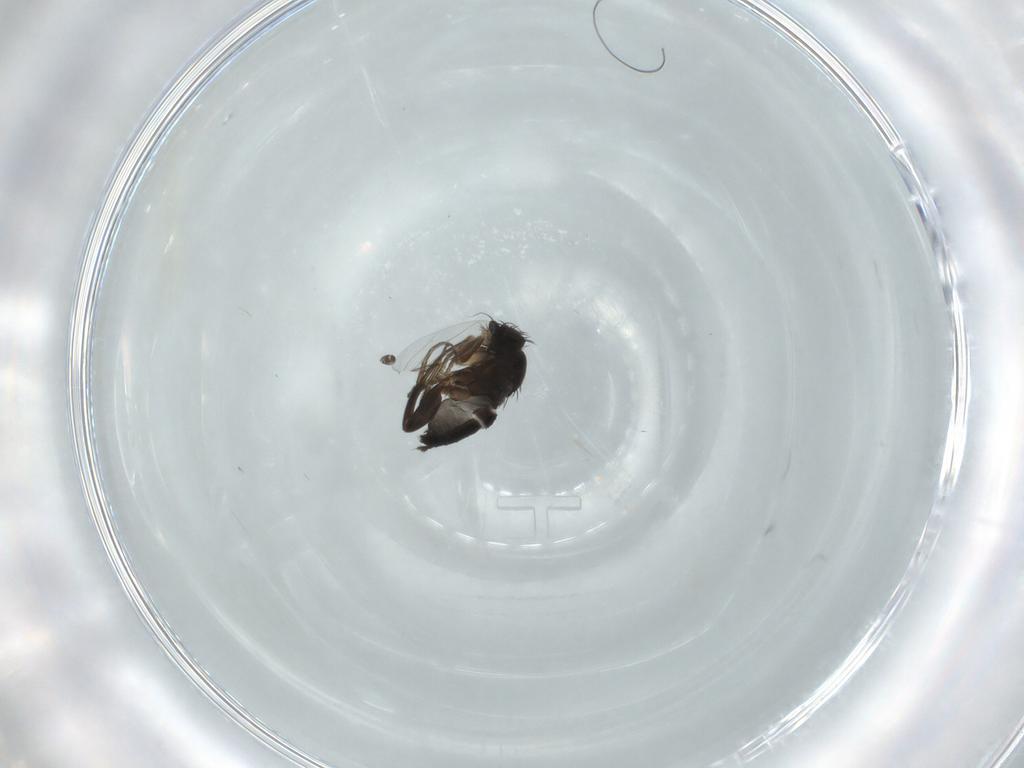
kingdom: Animalia
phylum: Arthropoda
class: Insecta
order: Diptera
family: Phoridae
